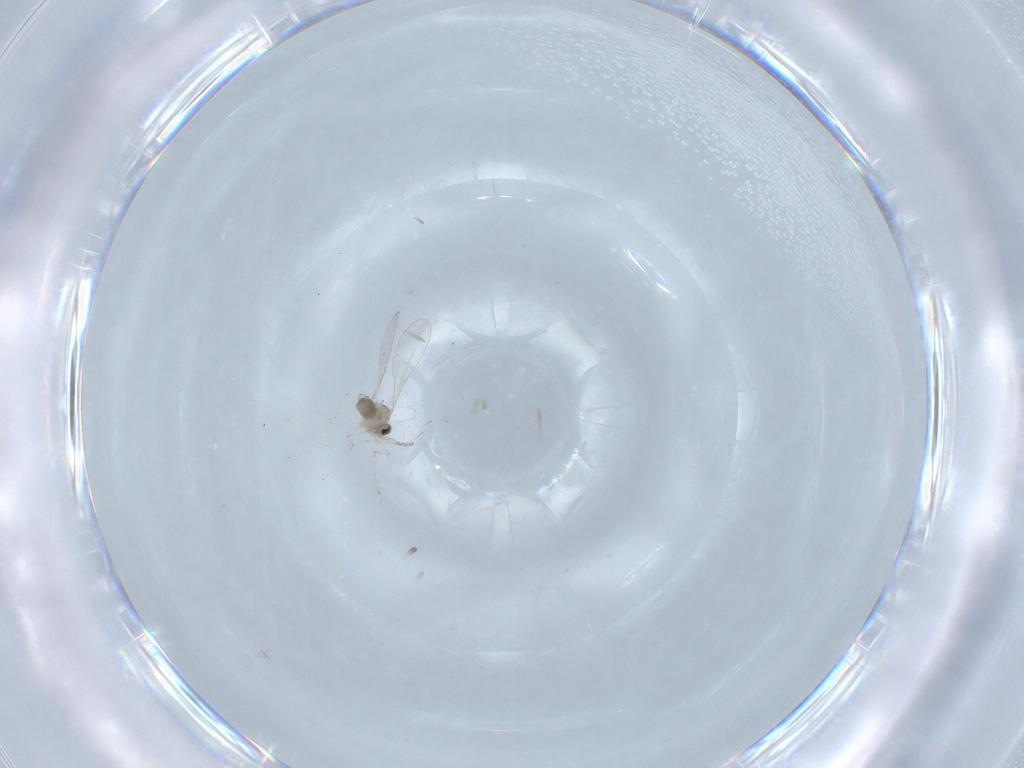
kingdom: Animalia
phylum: Arthropoda
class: Insecta
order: Diptera
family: Cecidomyiidae
